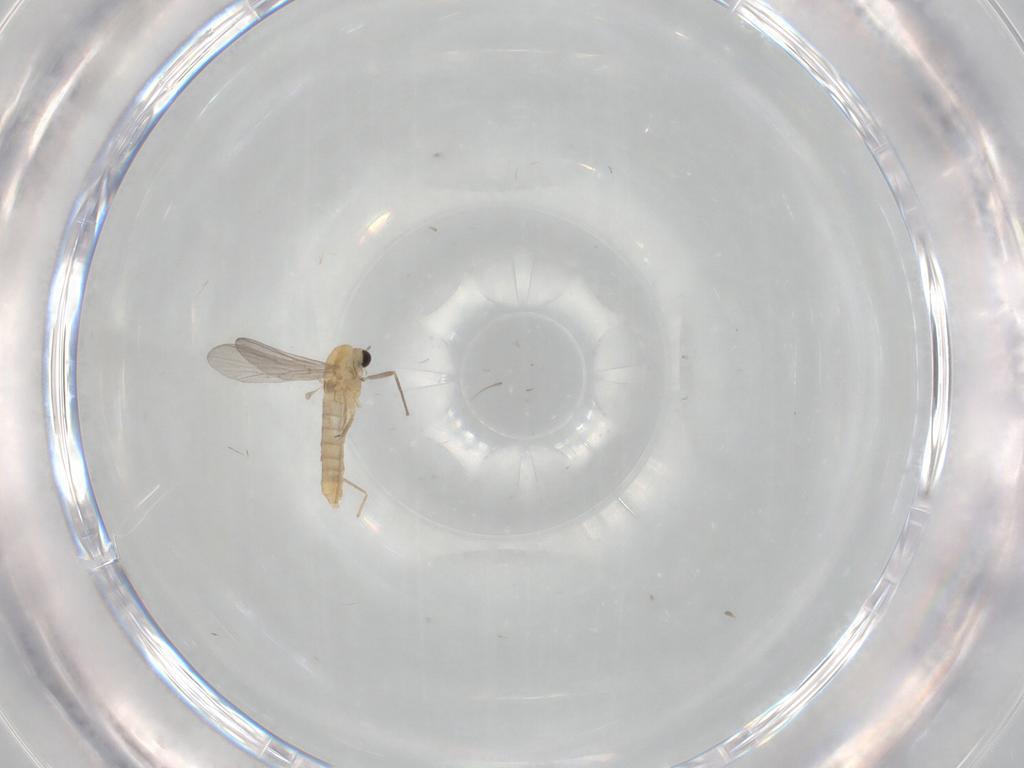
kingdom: Animalia
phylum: Arthropoda
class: Insecta
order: Diptera
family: Chironomidae
